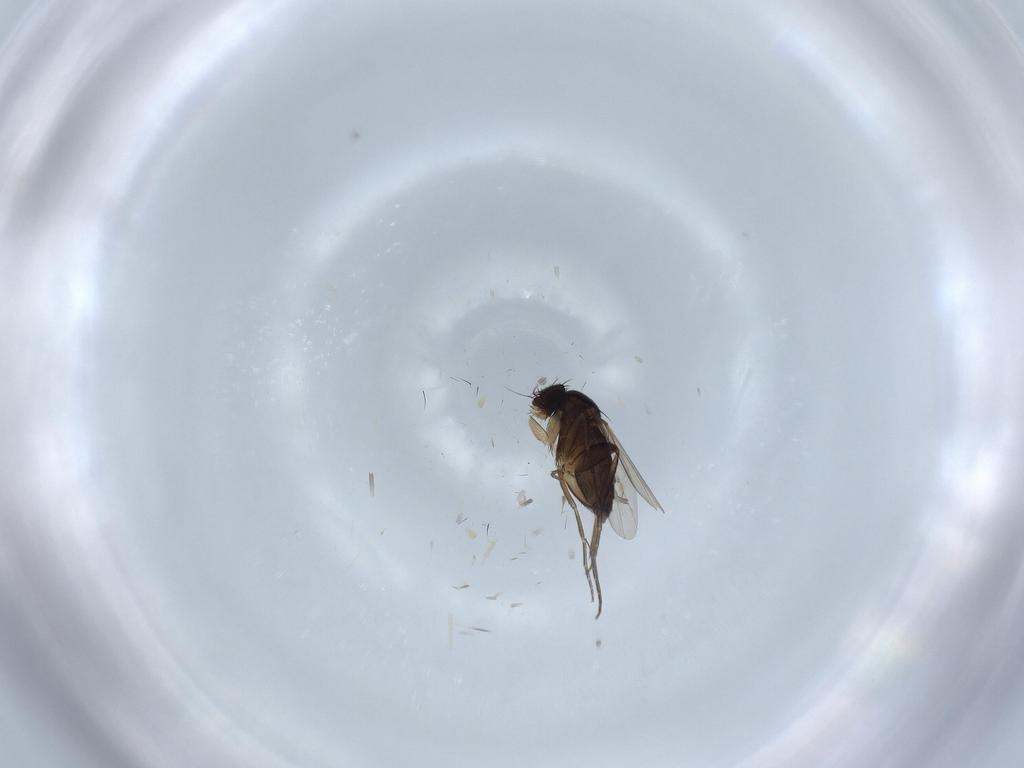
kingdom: Animalia
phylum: Arthropoda
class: Insecta
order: Diptera
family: Phoridae
